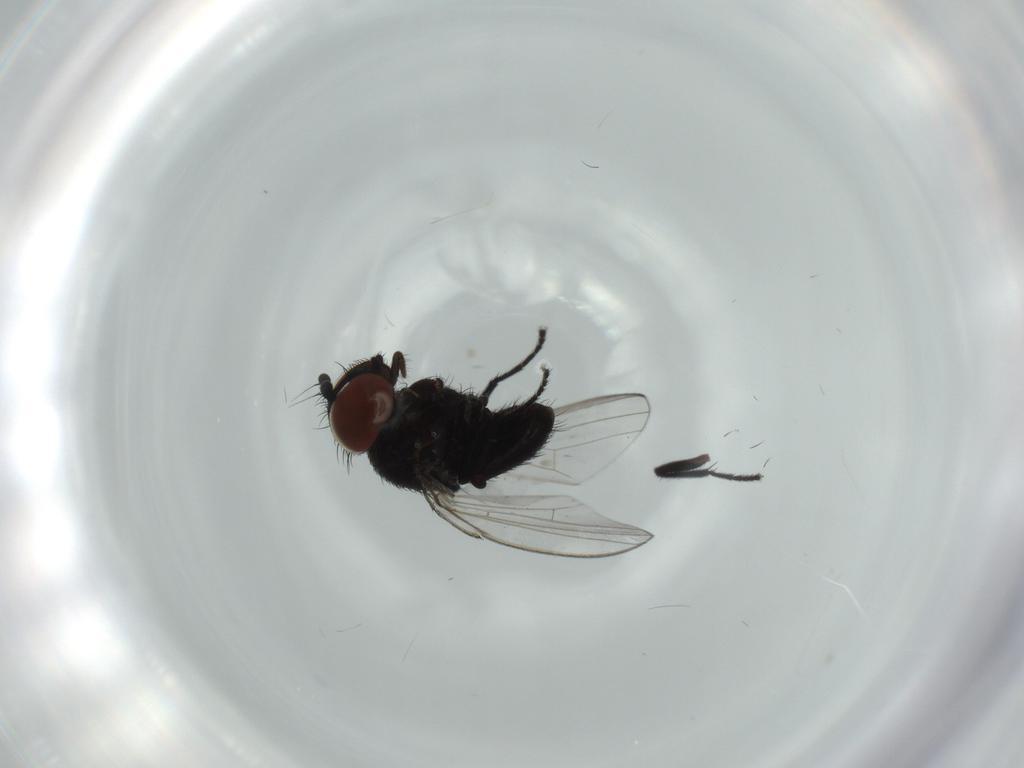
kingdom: Animalia
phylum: Arthropoda
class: Insecta
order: Diptera
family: Milichiidae
